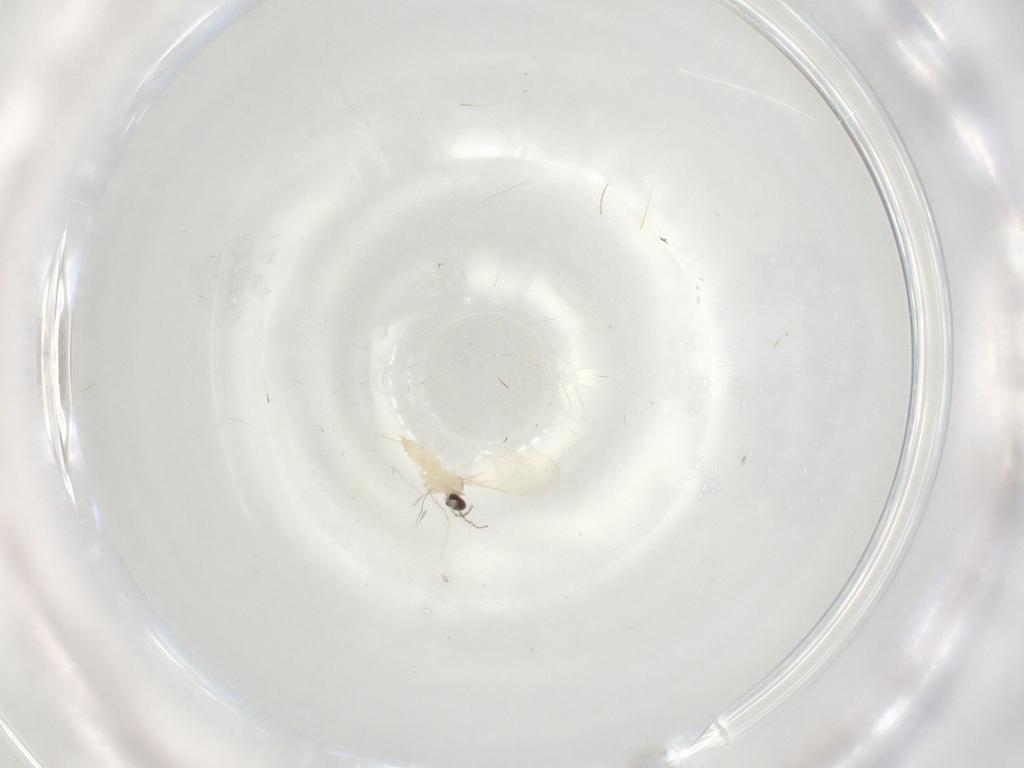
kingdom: Animalia
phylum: Arthropoda
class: Insecta
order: Diptera
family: Cecidomyiidae
